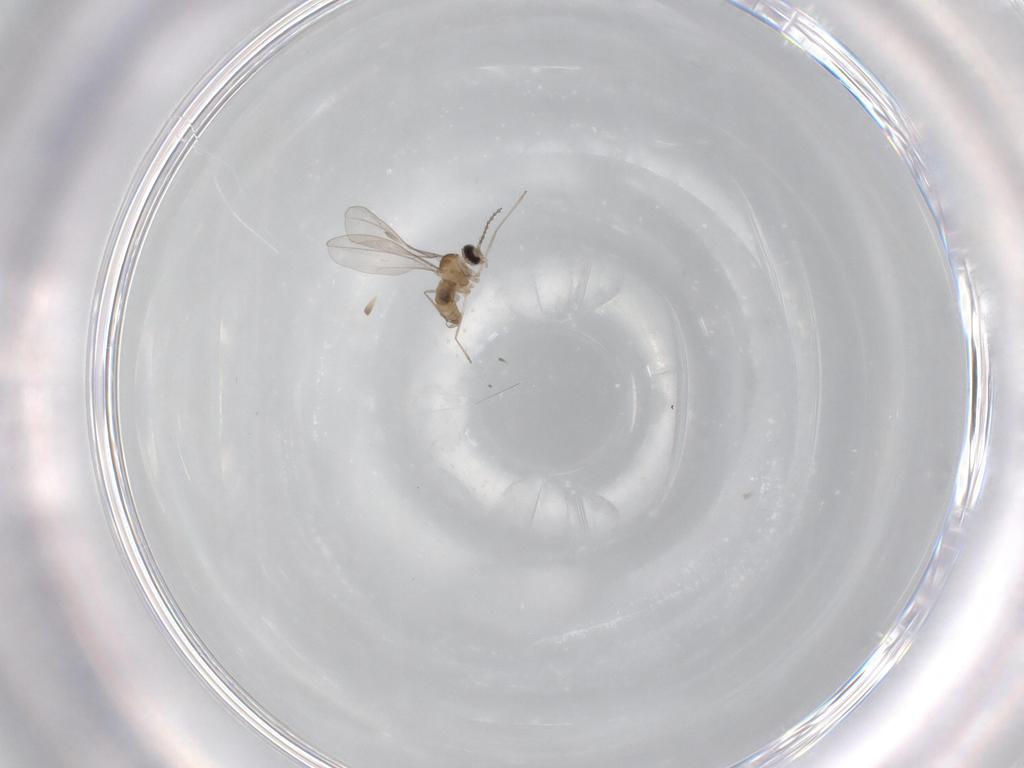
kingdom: Animalia
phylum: Arthropoda
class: Insecta
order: Diptera
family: Cecidomyiidae
